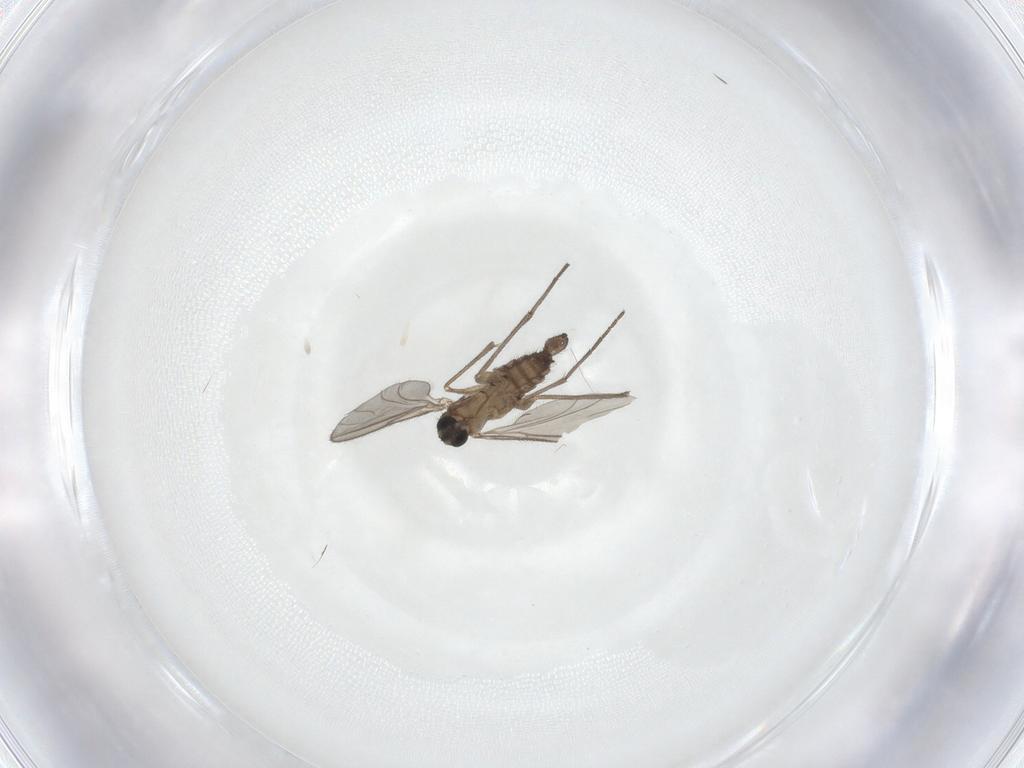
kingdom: Animalia
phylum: Arthropoda
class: Insecta
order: Diptera
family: Sciaridae
